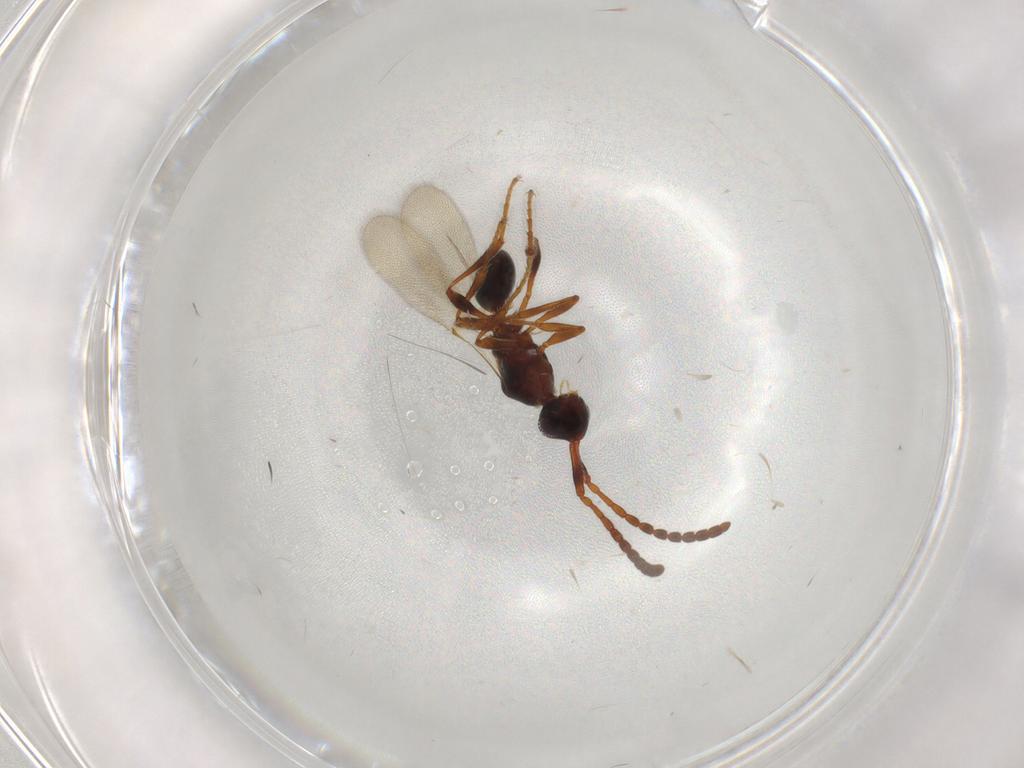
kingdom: Animalia
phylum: Arthropoda
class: Insecta
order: Hymenoptera
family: Diapriidae
